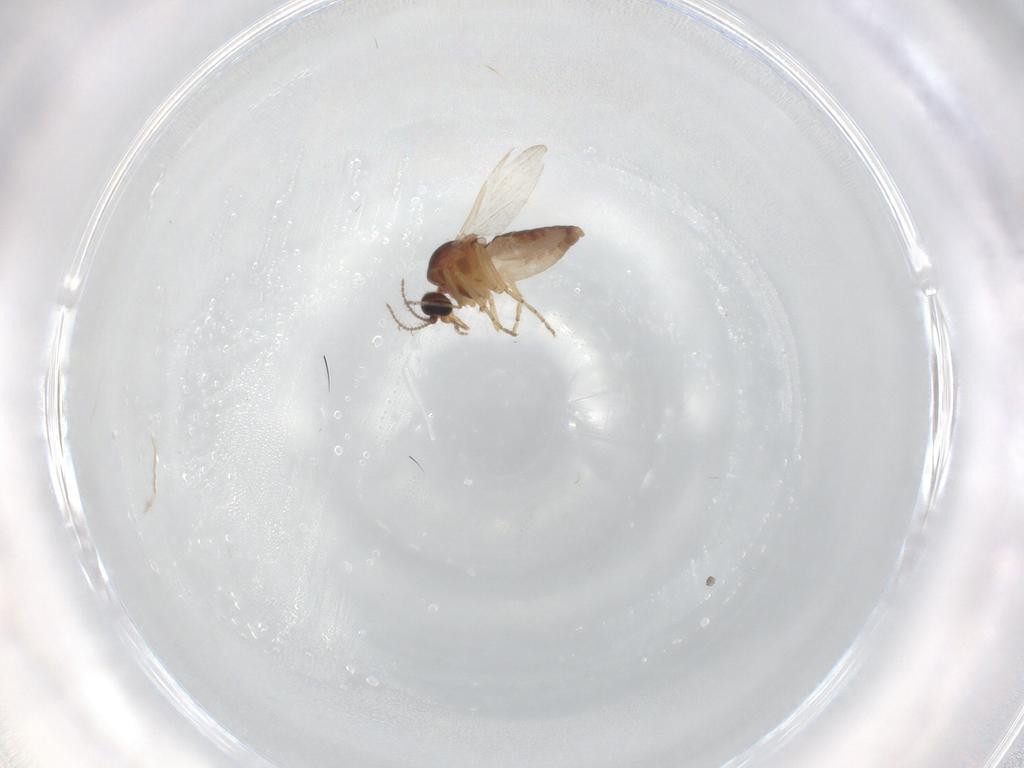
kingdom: Animalia
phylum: Arthropoda
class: Insecta
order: Diptera
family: Ceratopogonidae
